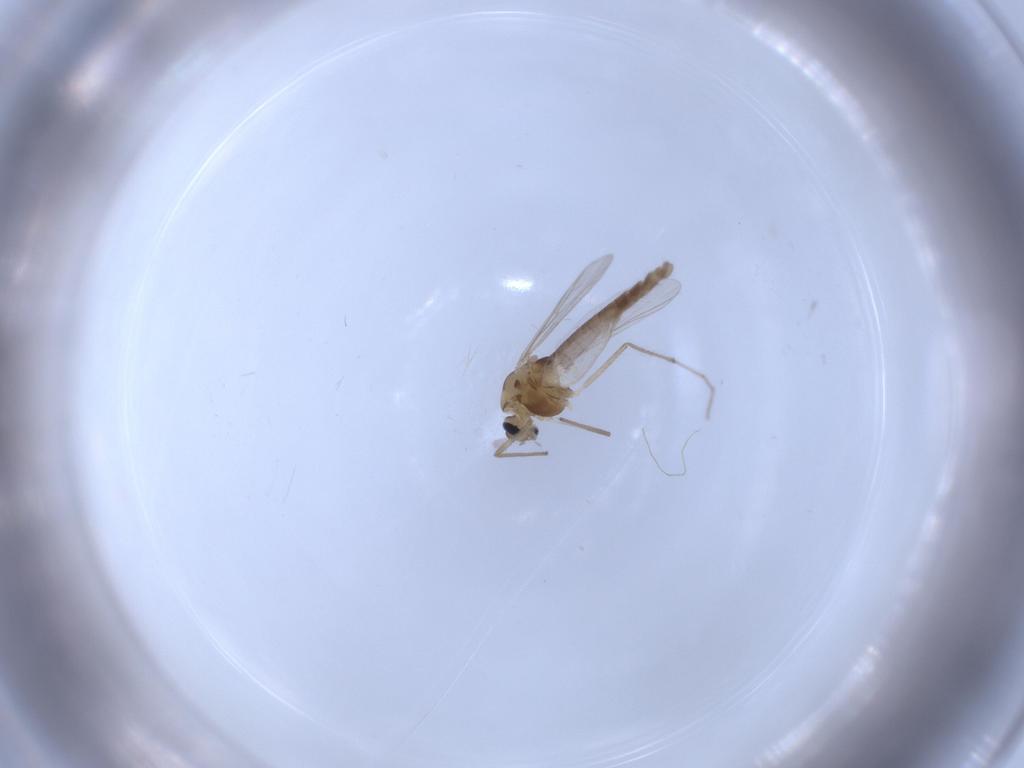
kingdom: Animalia
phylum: Arthropoda
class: Insecta
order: Diptera
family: Chironomidae
